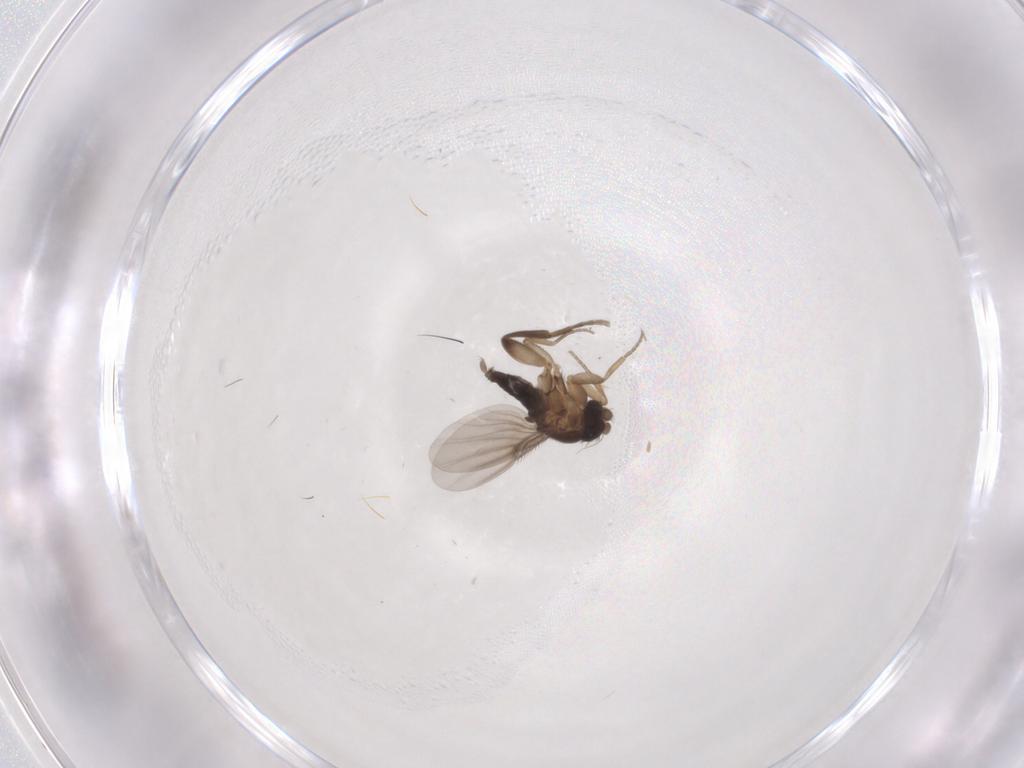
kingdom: Animalia
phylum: Arthropoda
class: Insecta
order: Diptera
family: Phoridae
